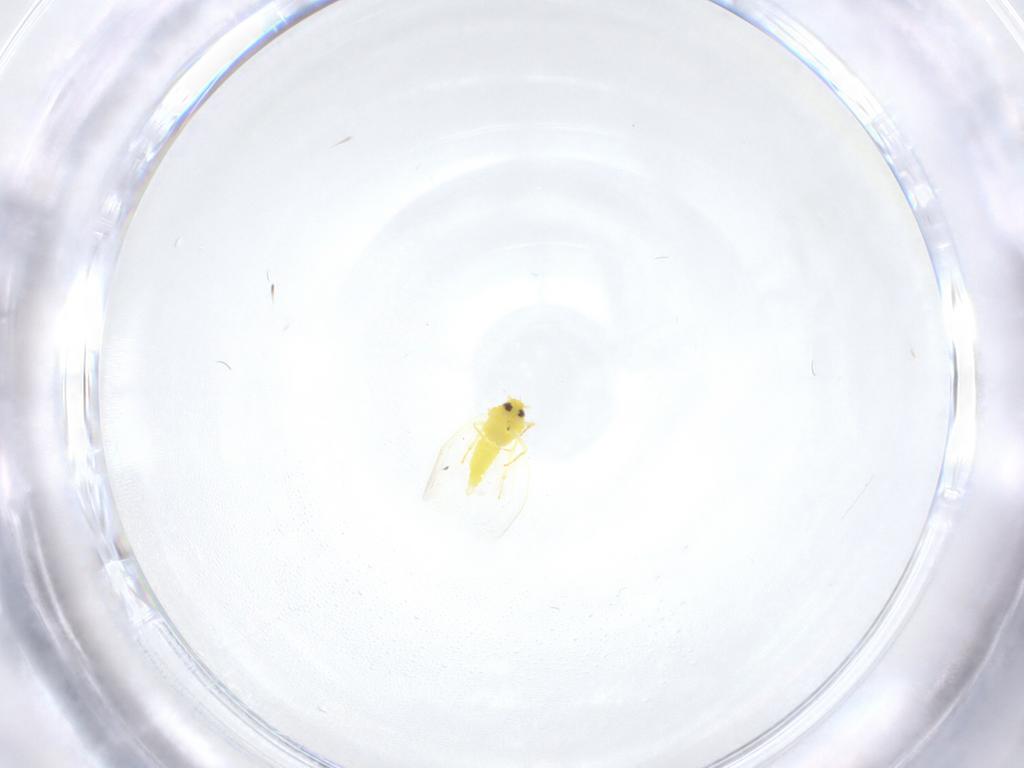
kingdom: Animalia
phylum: Arthropoda
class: Insecta
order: Hemiptera
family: Aleyrodidae
